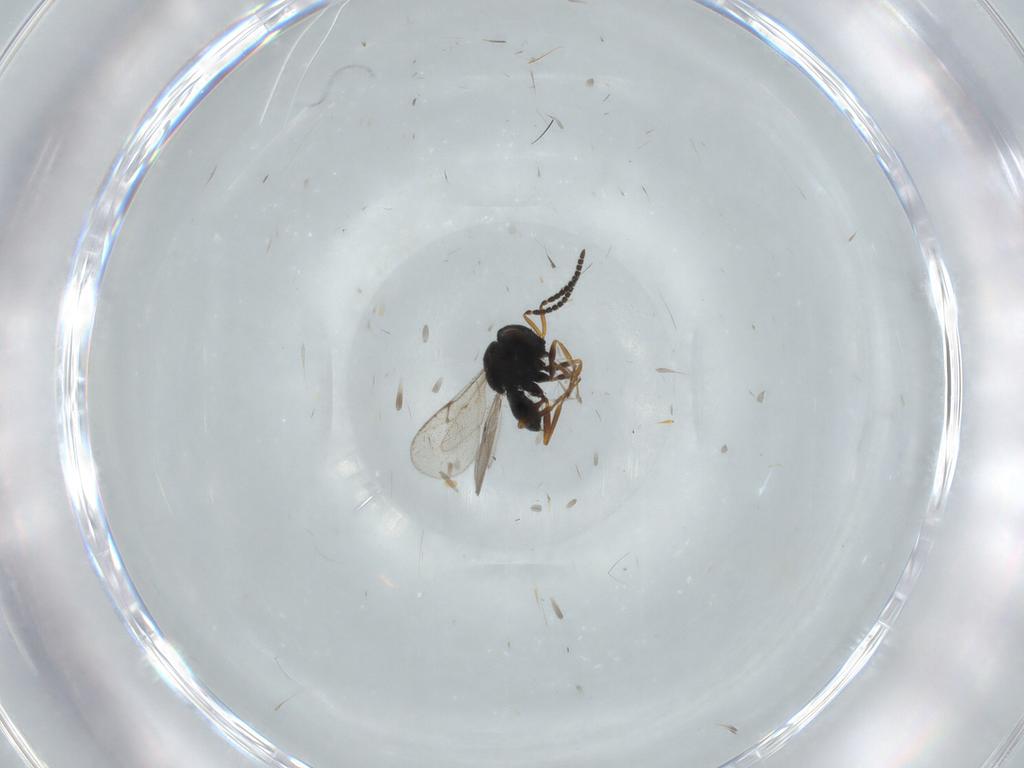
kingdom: Animalia
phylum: Arthropoda
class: Insecta
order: Hymenoptera
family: Scelionidae
